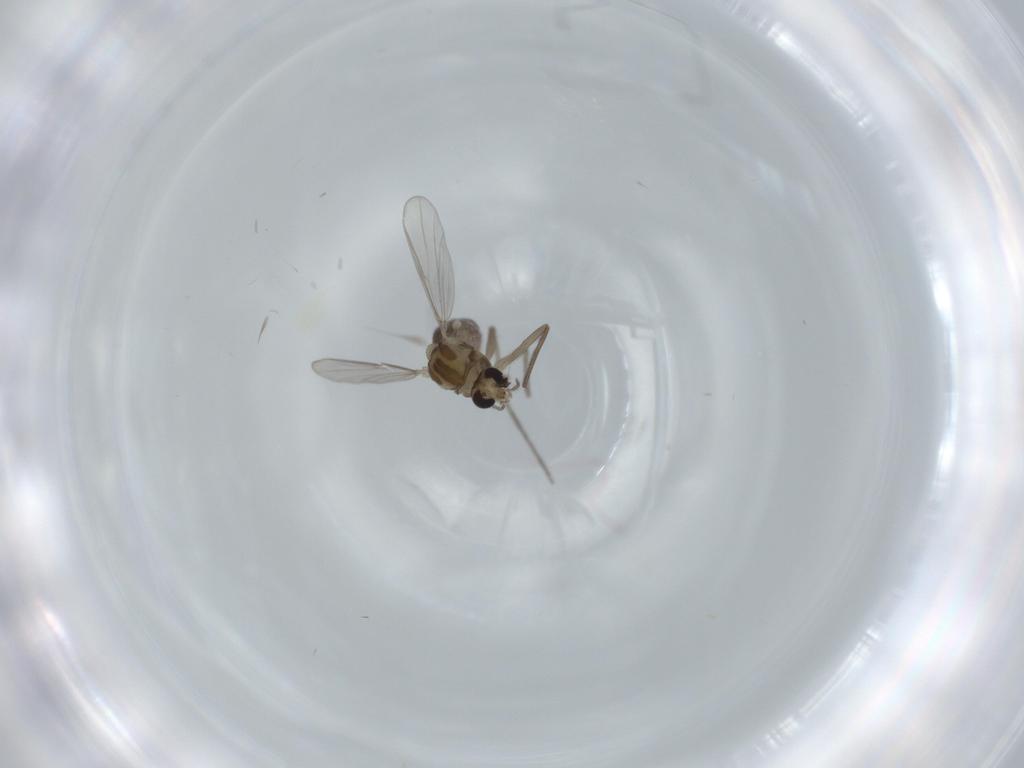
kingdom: Animalia
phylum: Arthropoda
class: Insecta
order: Diptera
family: Chironomidae
